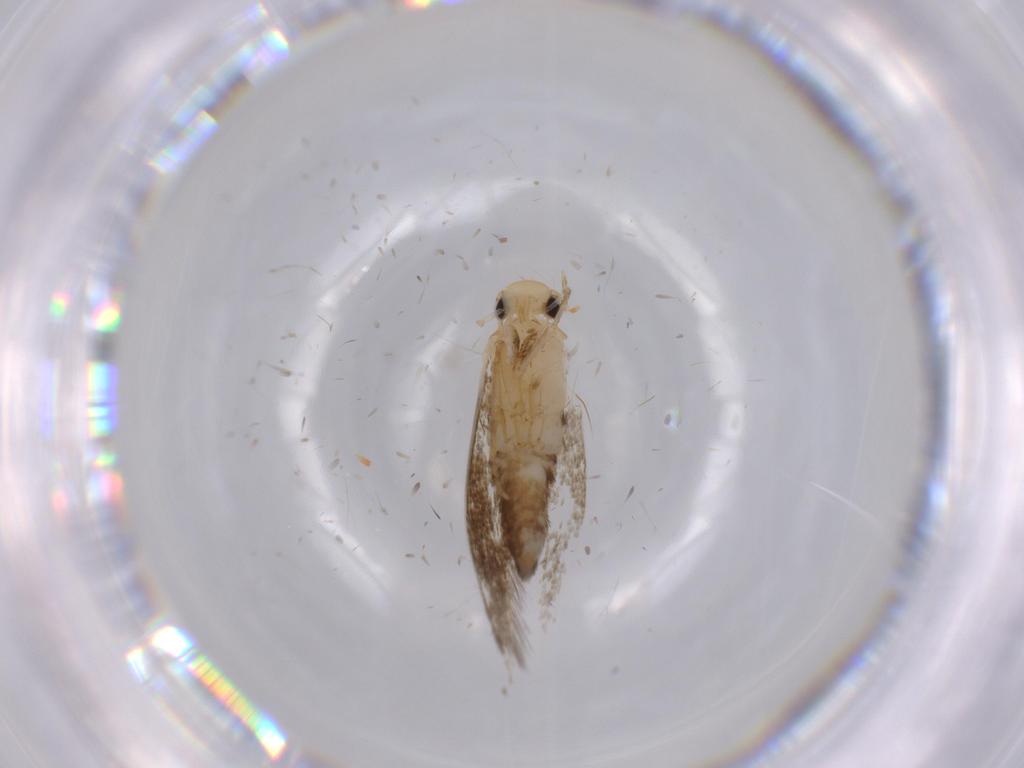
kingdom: Animalia
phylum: Arthropoda
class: Insecta
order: Lepidoptera
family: Tineidae
